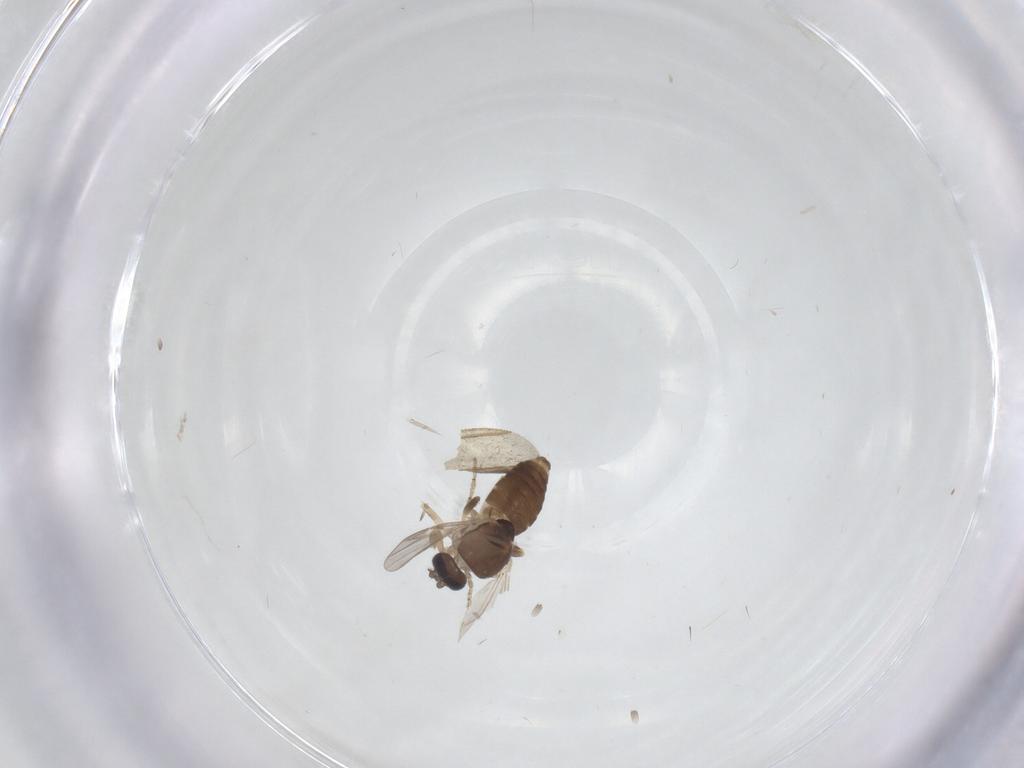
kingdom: Animalia
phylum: Arthropoda
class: Insecta
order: Diptera
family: Ceratopogonidae
